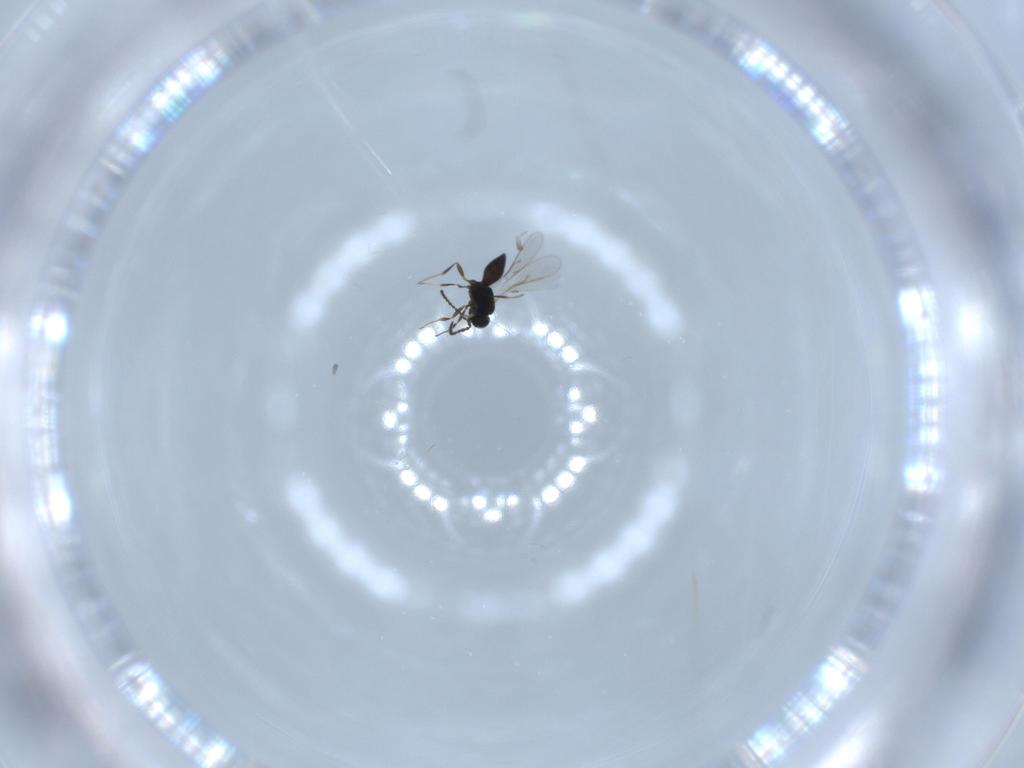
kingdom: Animalia
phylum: Arthropoda
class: Insecta
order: Hymenoptera
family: Scelionidae
